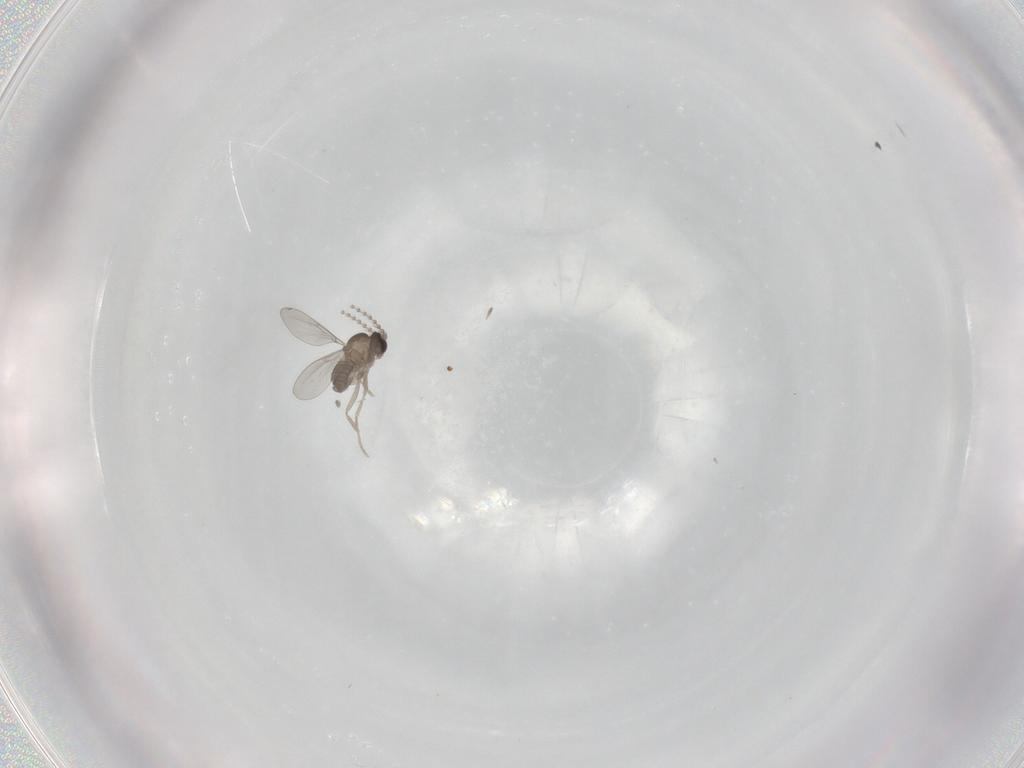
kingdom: Animalia
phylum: Arthropoda
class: Insecta
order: Diptera
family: Cecidomyiidae
